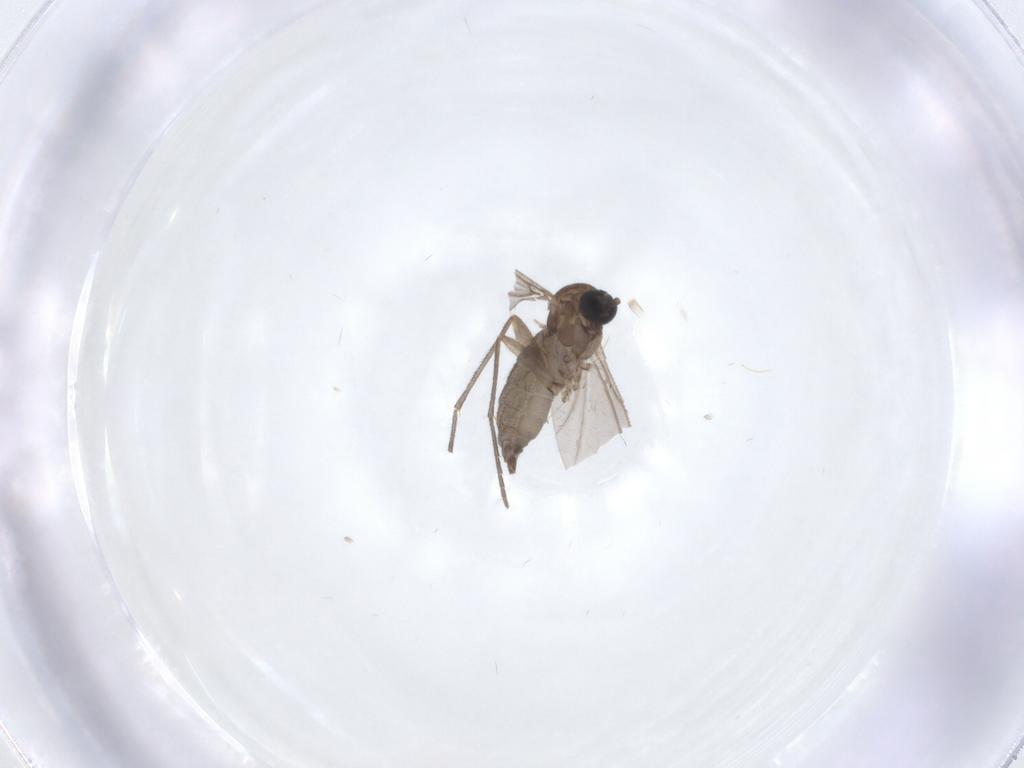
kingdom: Animalia
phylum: Arthropoda
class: Insecta
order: Diptera
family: Sciaridae
